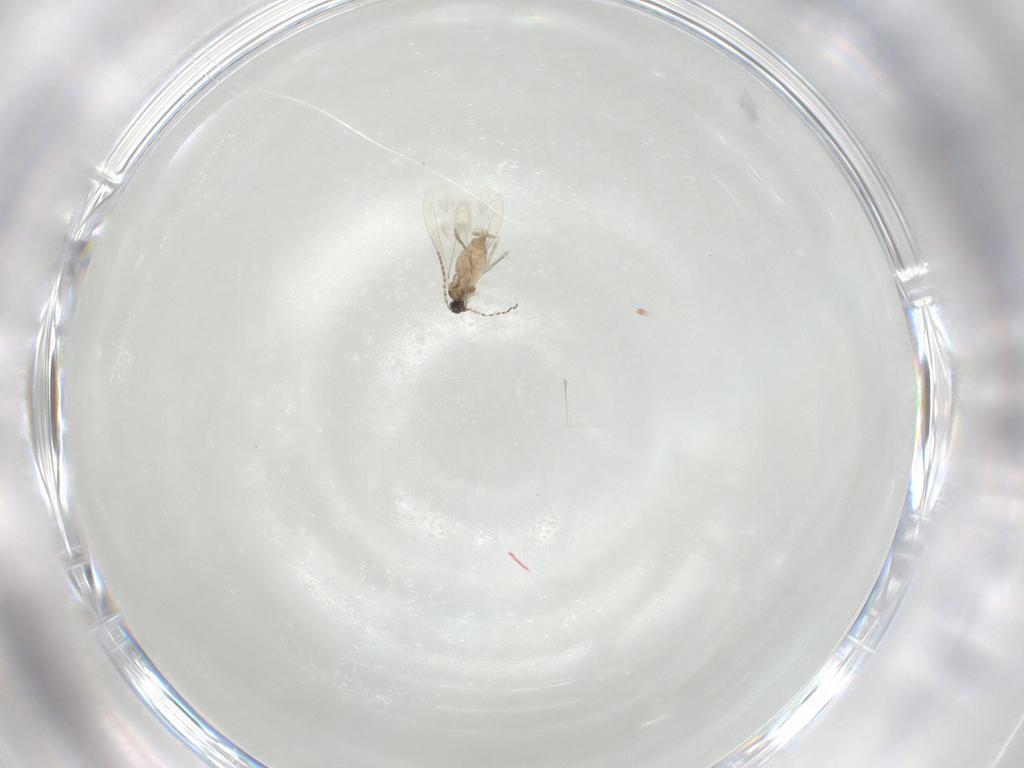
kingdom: Animalia
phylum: Arthropoda
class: Insecta
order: Diptera
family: Cecidomyiidae
